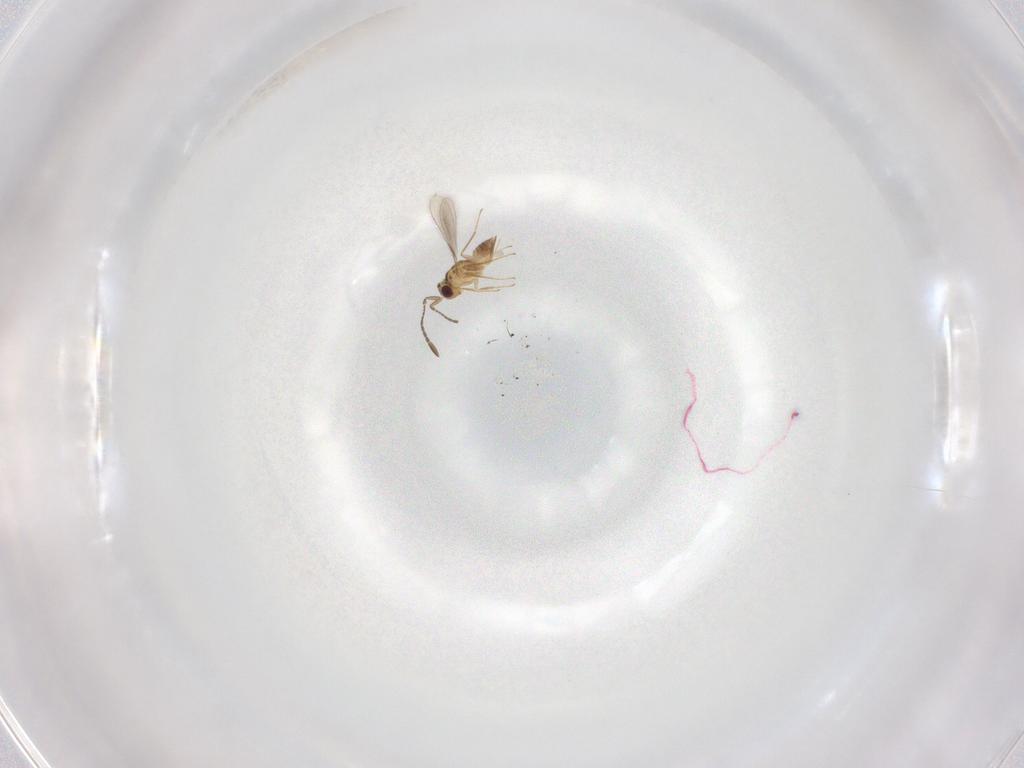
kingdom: Animalia
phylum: Arthropoda
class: Insecta
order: Hymenoptera
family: Mymaridae
